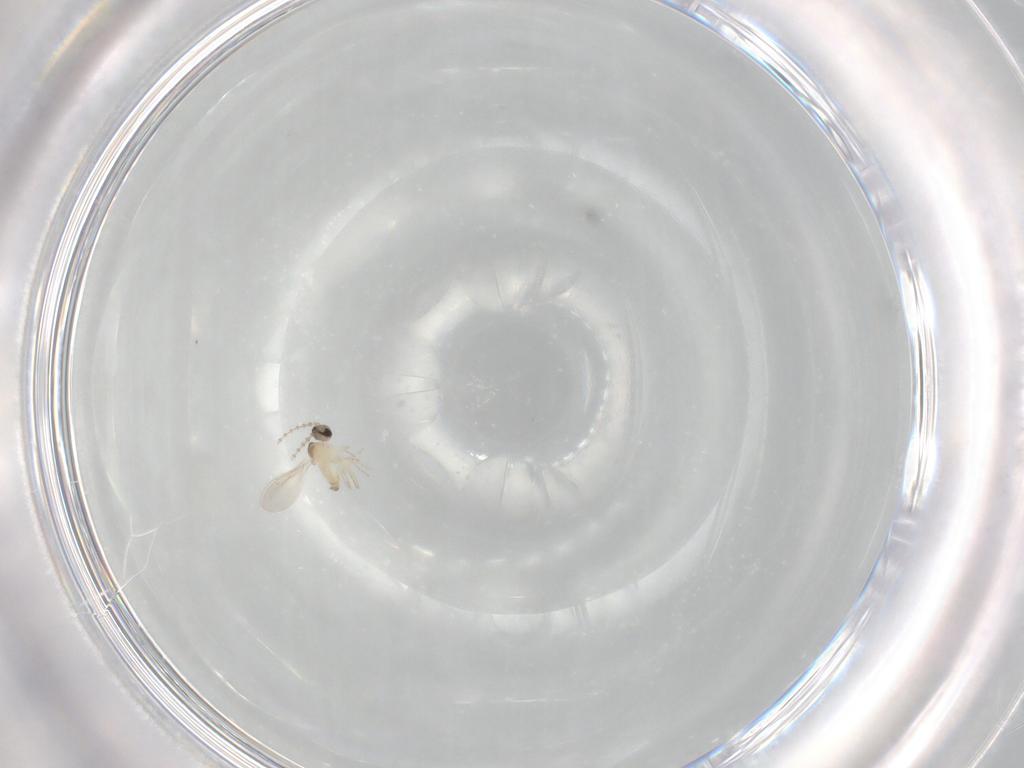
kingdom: Animalia
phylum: Arthropoda
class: Insecta
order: Diptera
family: Cecidomyiidae
